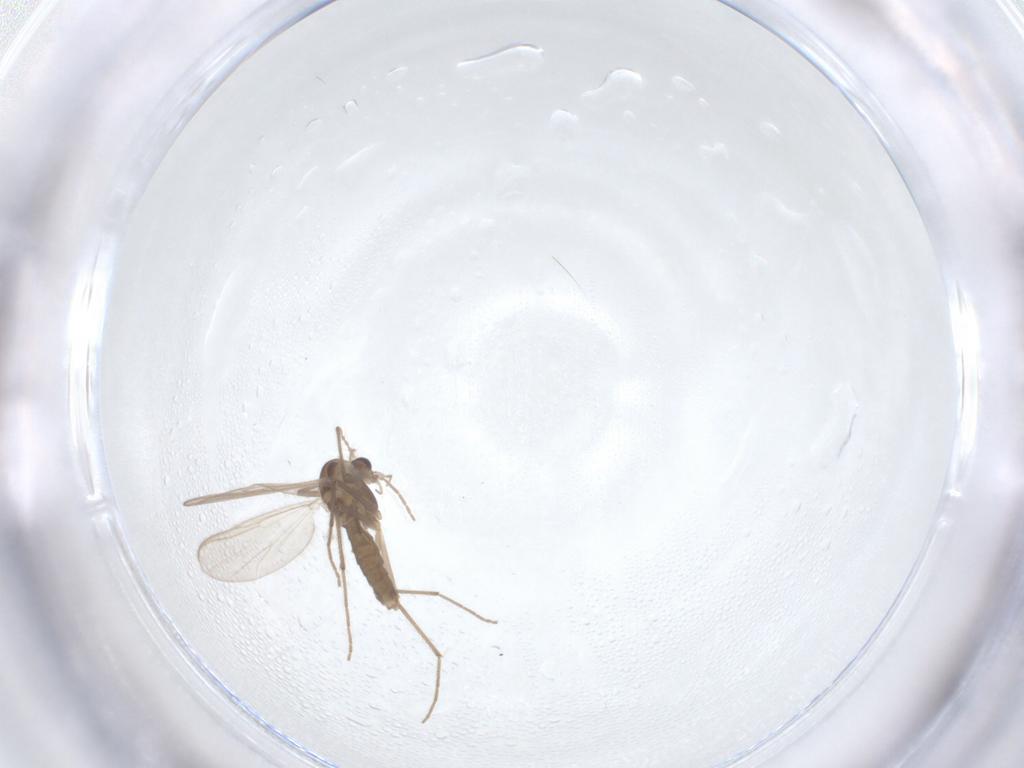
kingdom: Animalia
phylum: Arthropoda
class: Insecta
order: Diptera
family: Chironomidae
